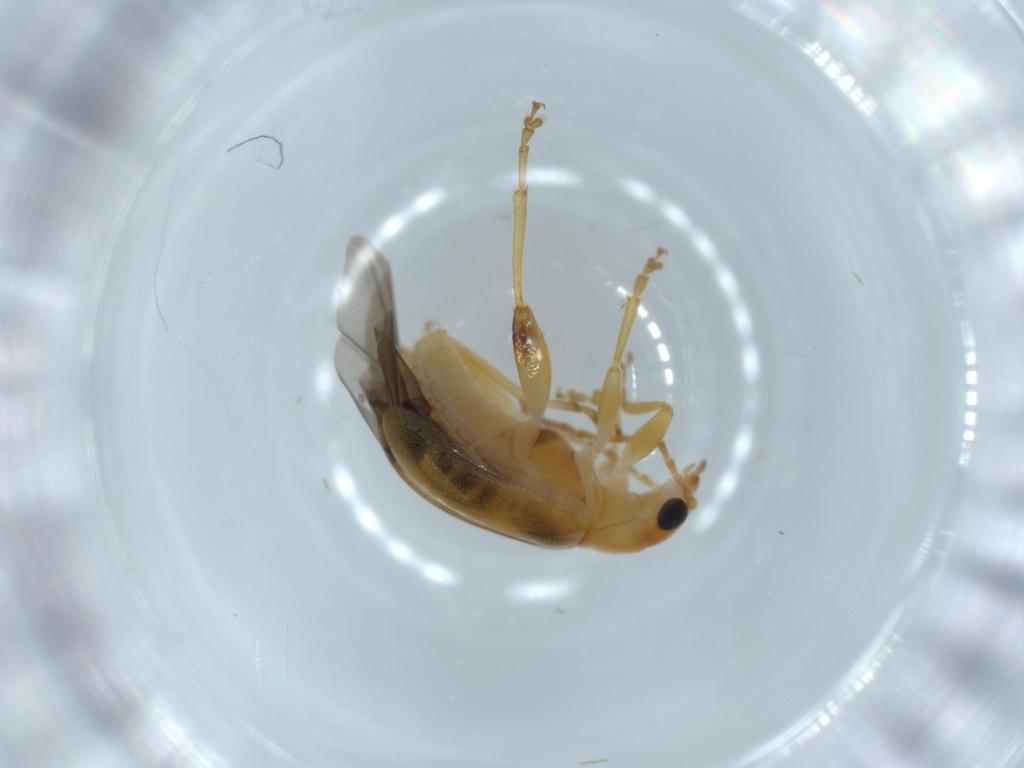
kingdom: Animalia
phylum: Arthropoda
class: Insecta
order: Coleoptera
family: Chrysomelidae
